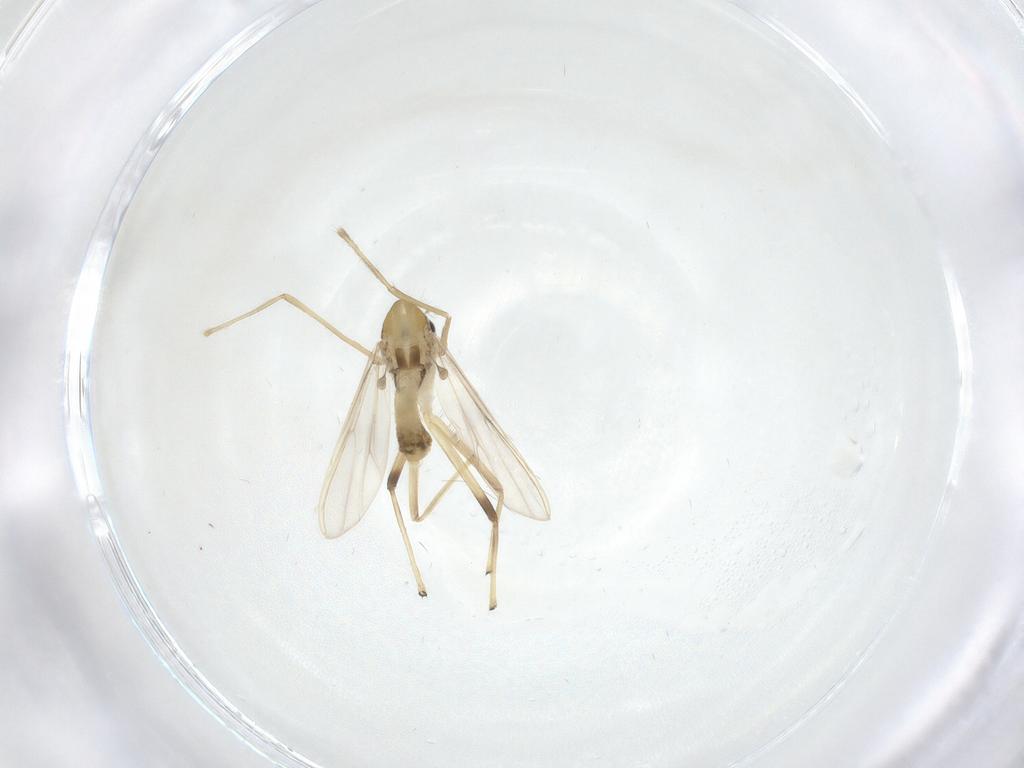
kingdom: Animalia
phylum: Arthropoda
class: Insecta
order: Diptera
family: Chironomidae
